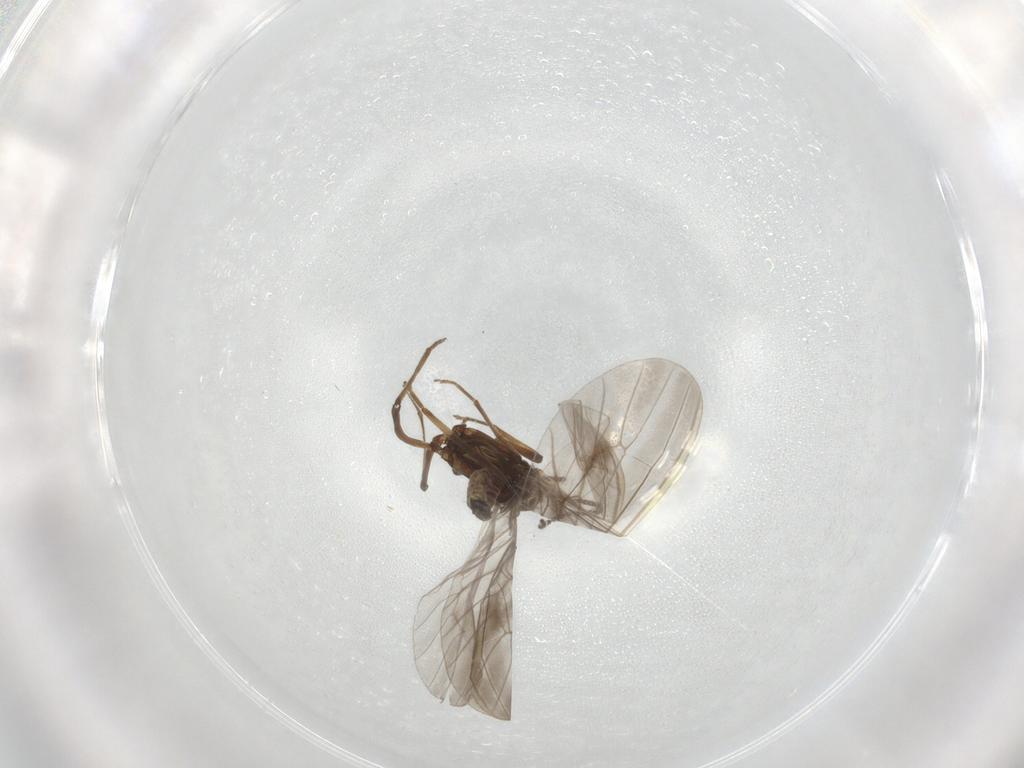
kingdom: Animalia
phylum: Arthropoda
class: Insecta
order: Neuroptera
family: Coniopterygidae
